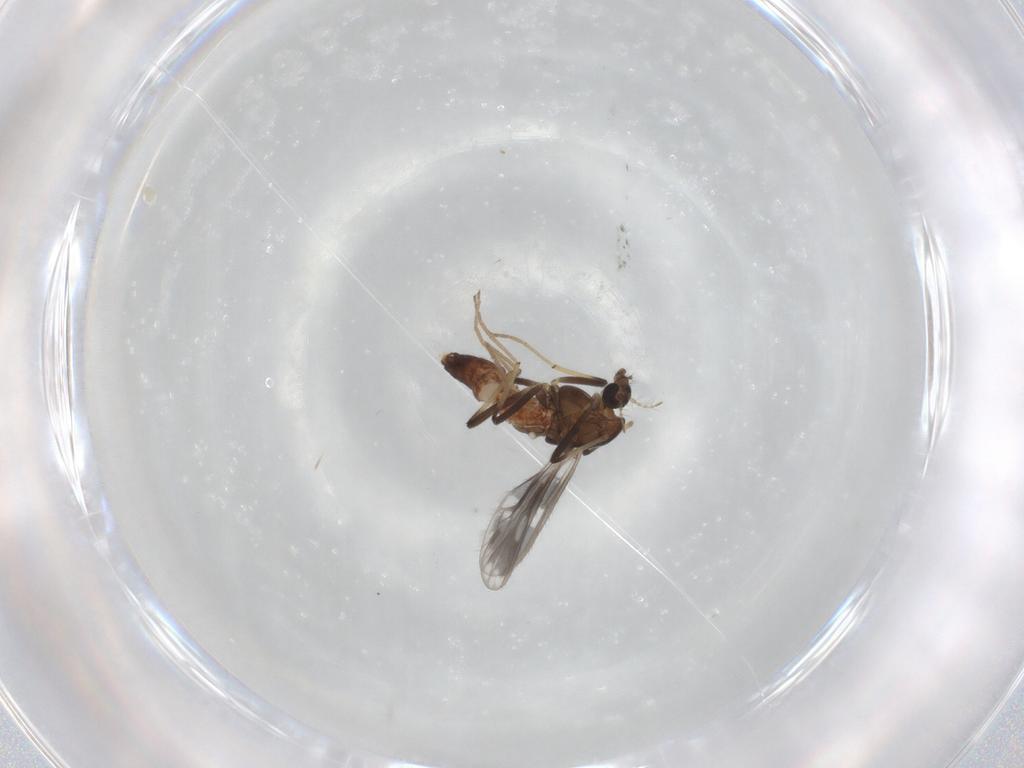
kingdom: Animalia
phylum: Arthropoda
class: Insecta
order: Diptera
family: Chironomidae
